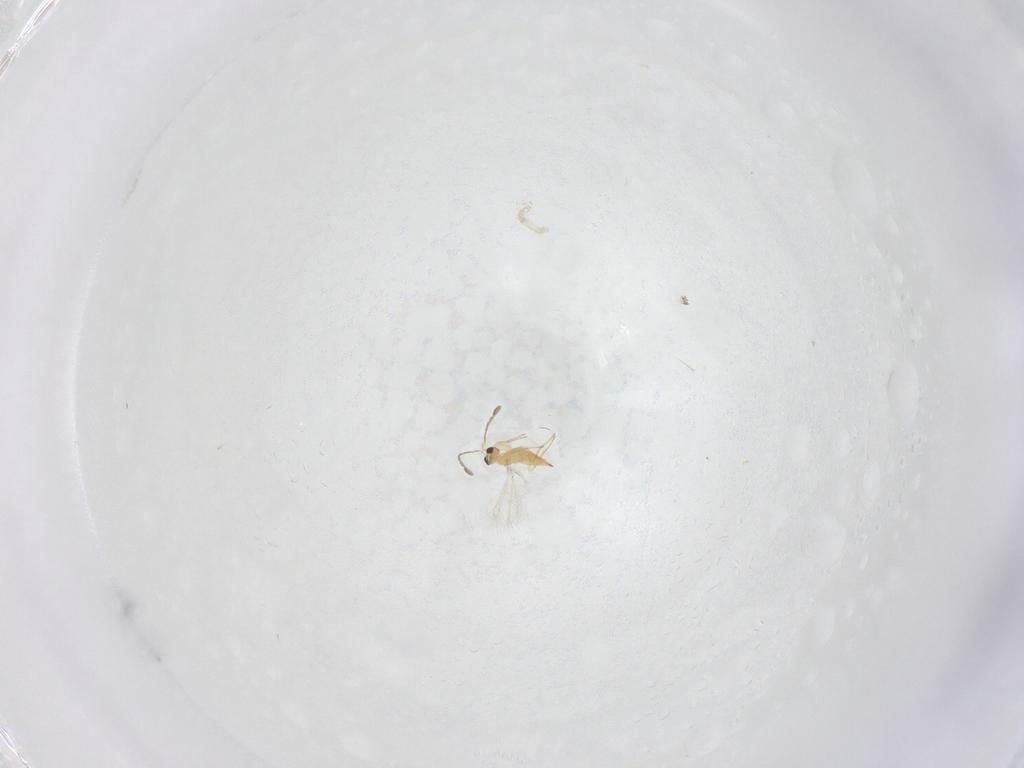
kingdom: Animalia
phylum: Arthropoda
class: Insecta
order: Hymenoptera
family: Mymaridae
